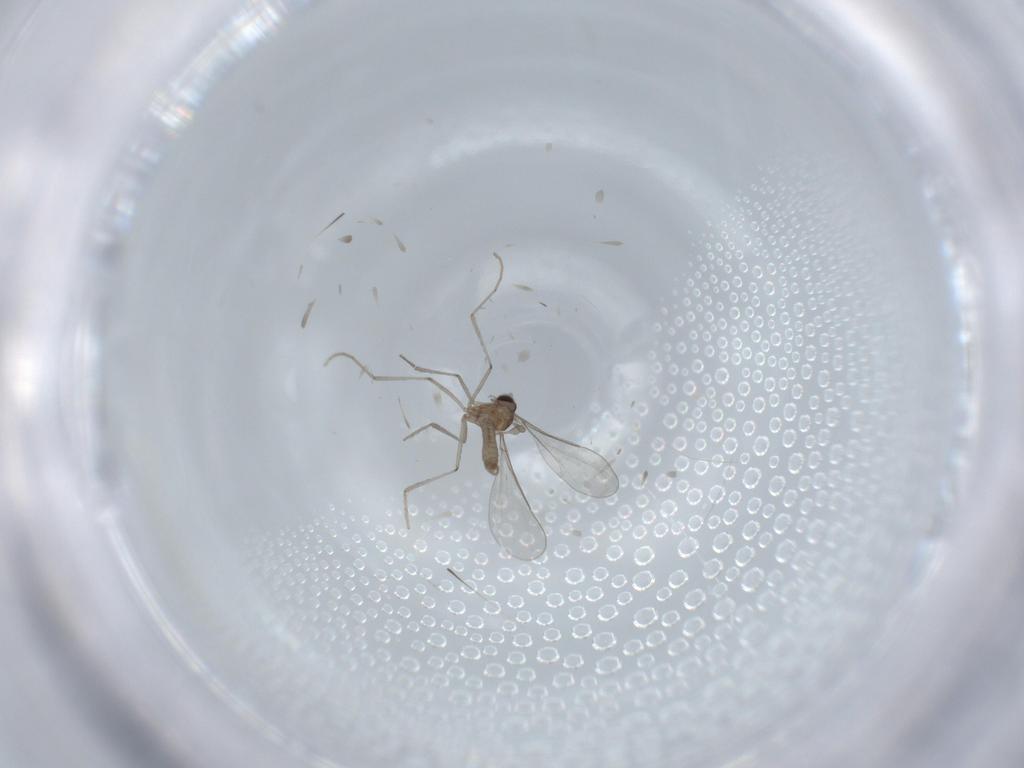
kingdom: Animalia
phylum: Arthropoda
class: Insecta
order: Diptera
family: Cecidomyiidae
